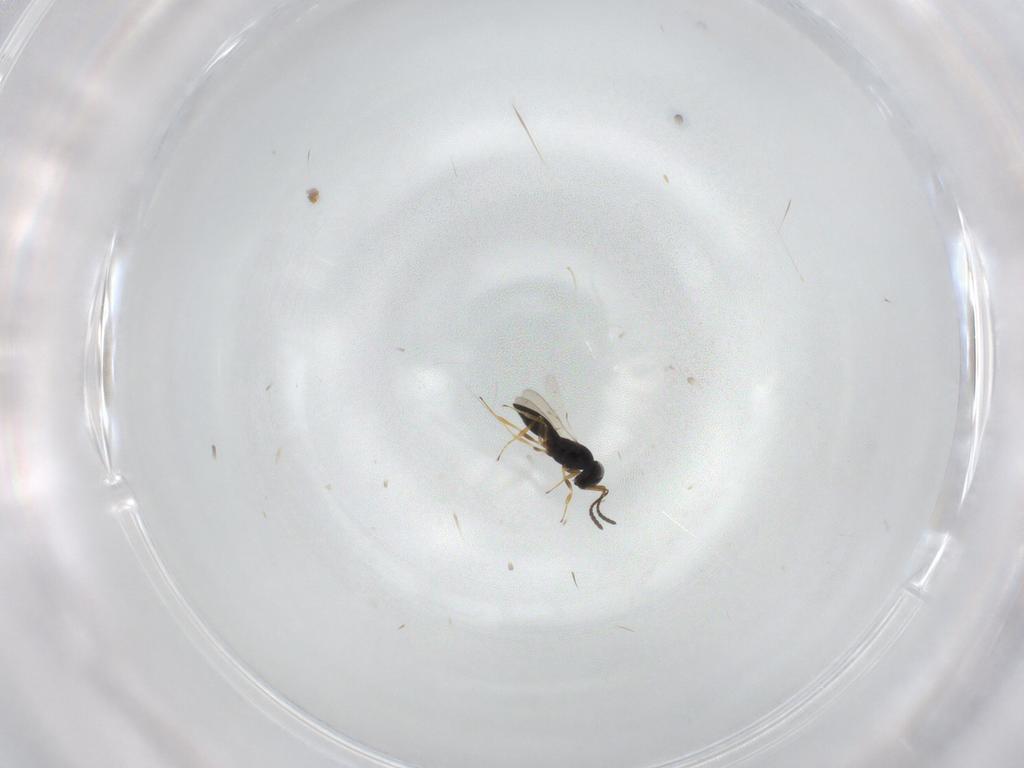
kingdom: Animalia
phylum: Arthropoda
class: Insecta
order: Hymenoptera
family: Scelionidae
